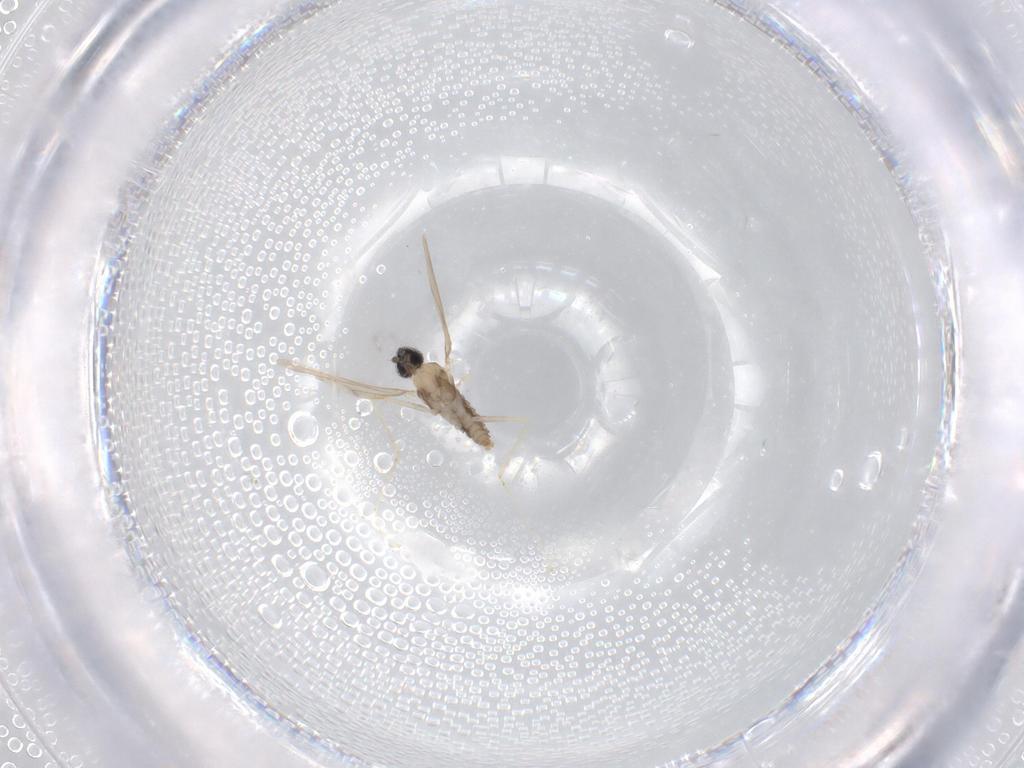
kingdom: Animalia
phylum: Arthropoda
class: Insecta
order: Diptera
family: Cecidomyiidae
